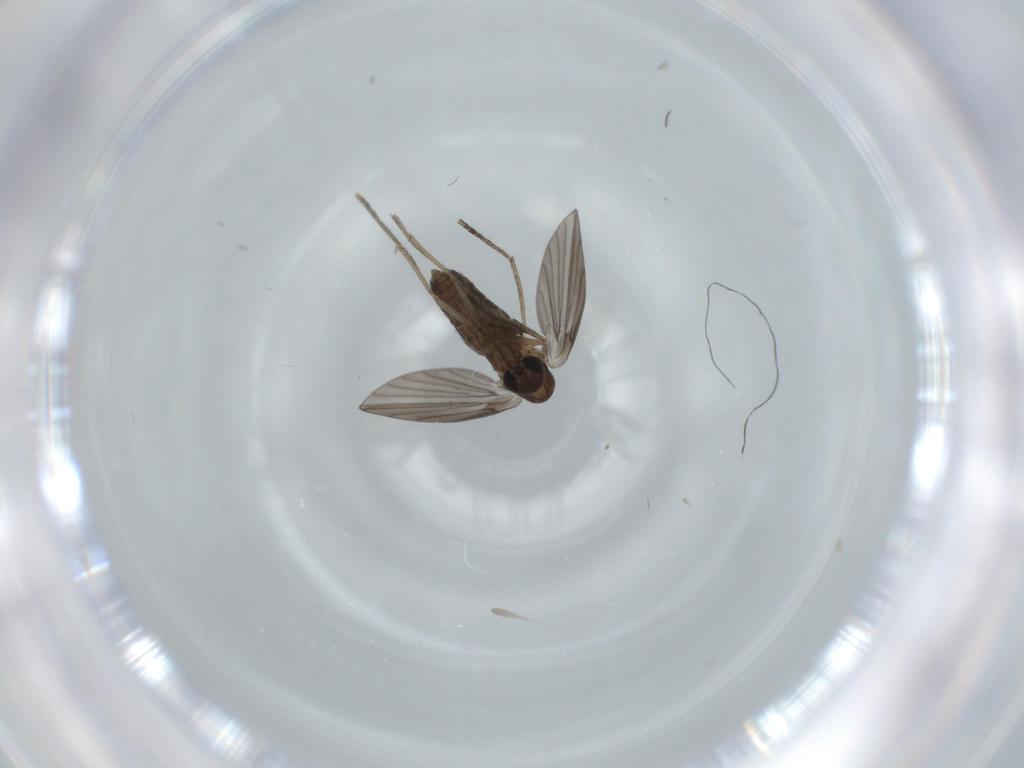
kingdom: Animalia
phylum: Arthropoda
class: Insecta
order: Diptera
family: Psychodidae
